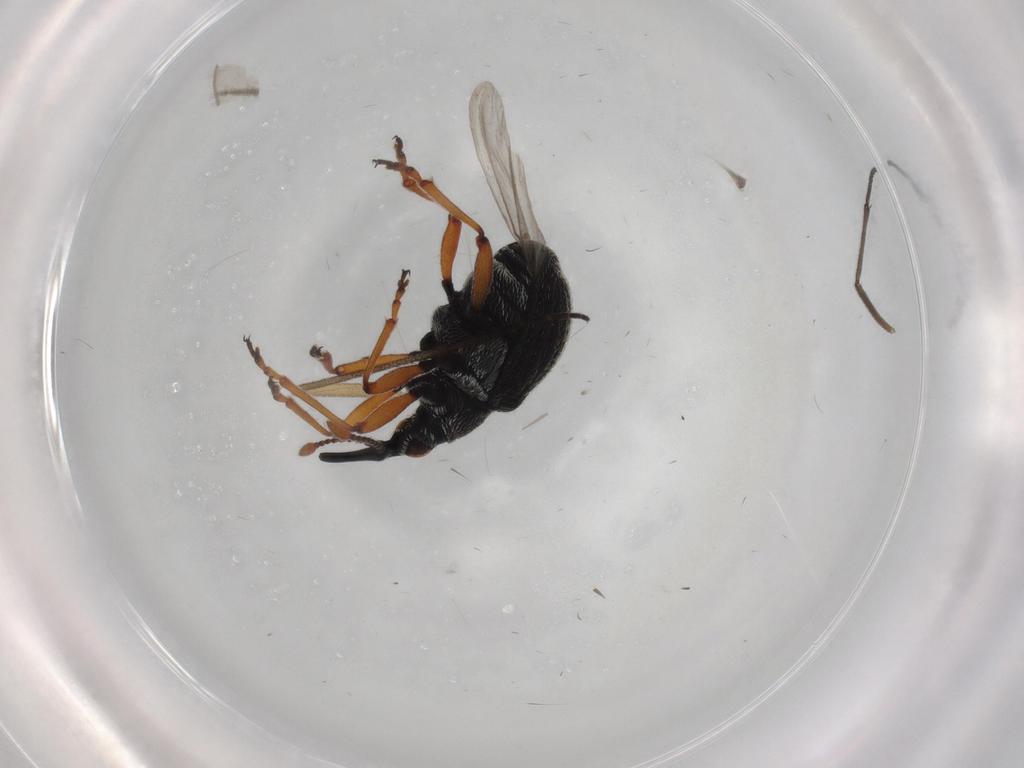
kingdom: Animalia
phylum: Arthropoda
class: Insecta
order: Coleoptera
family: Brentidae
